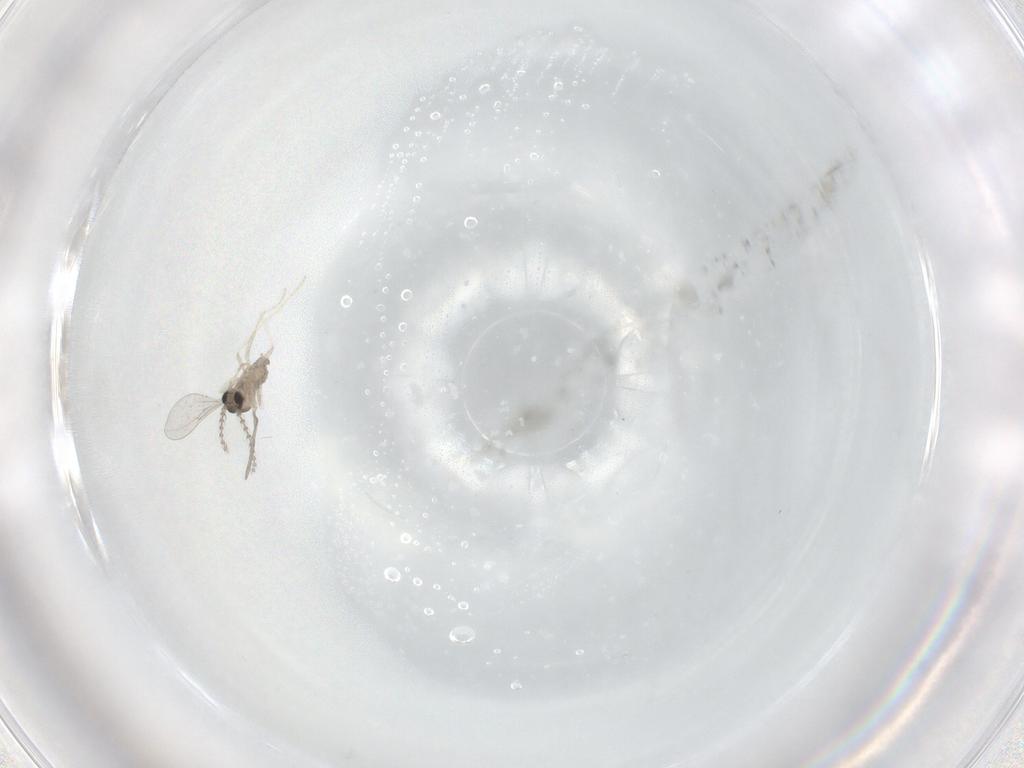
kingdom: Animalia
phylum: Arthropoda
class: Insecta
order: Diptera
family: Cecidomyiidae
